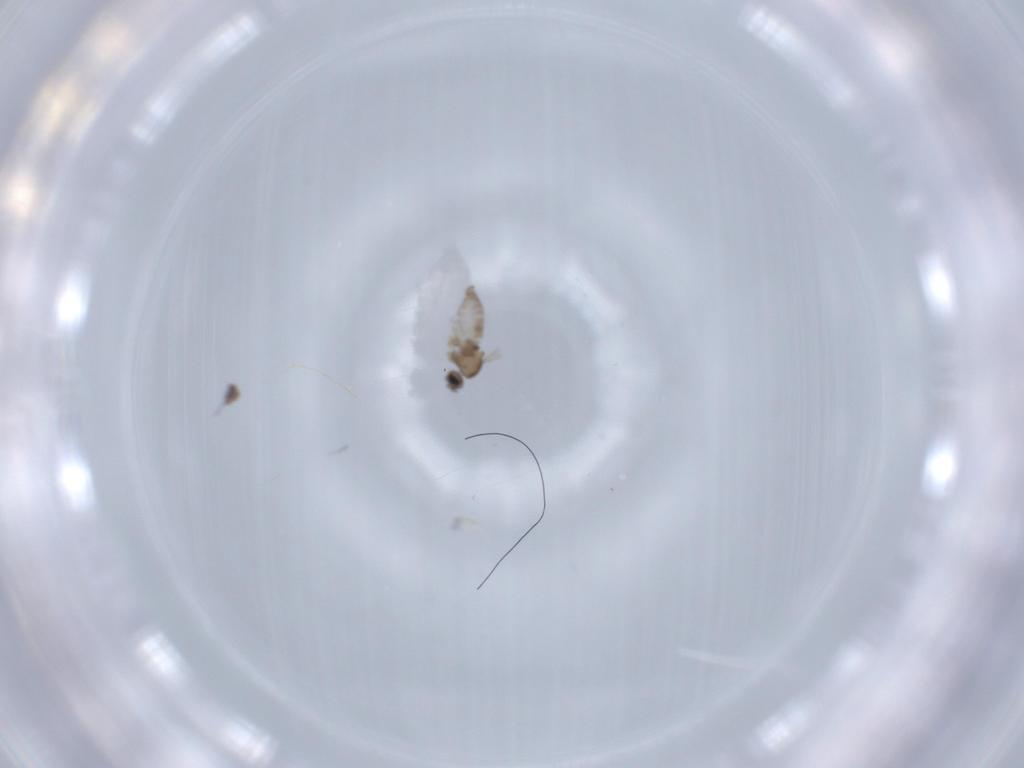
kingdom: Animalia
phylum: Arthropoda
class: Insecta
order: Diptera
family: Cecidomyiidae
